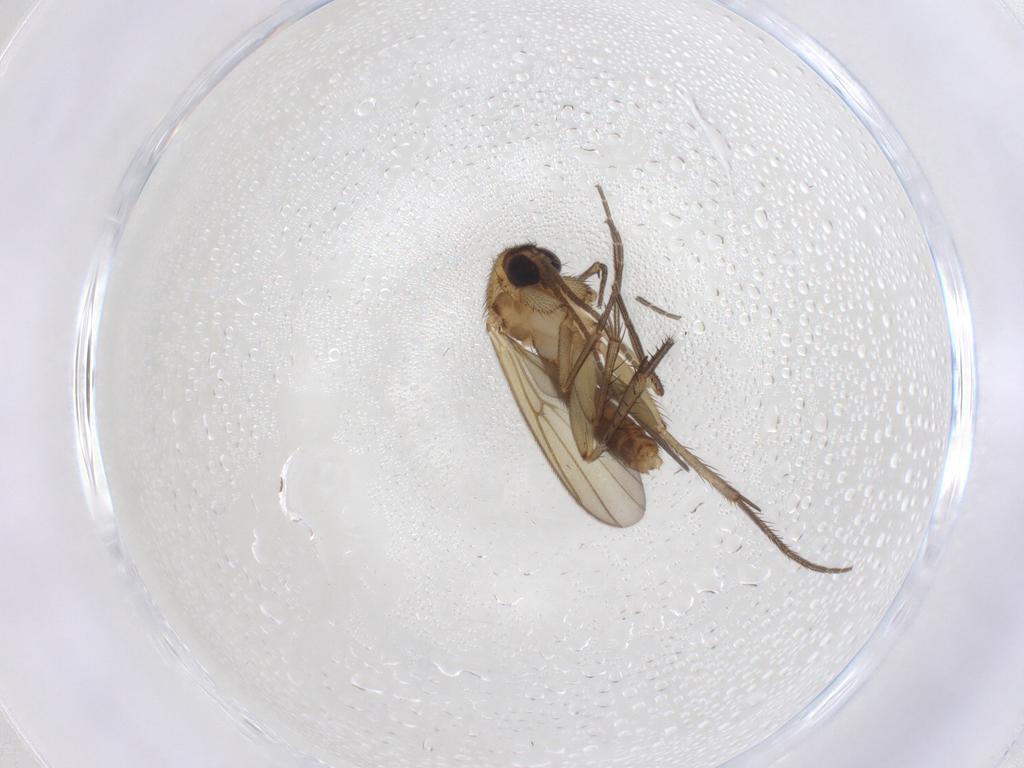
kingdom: Animalia
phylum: Arthropoda
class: Insecta
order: Diptera
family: Mycetophilidae
